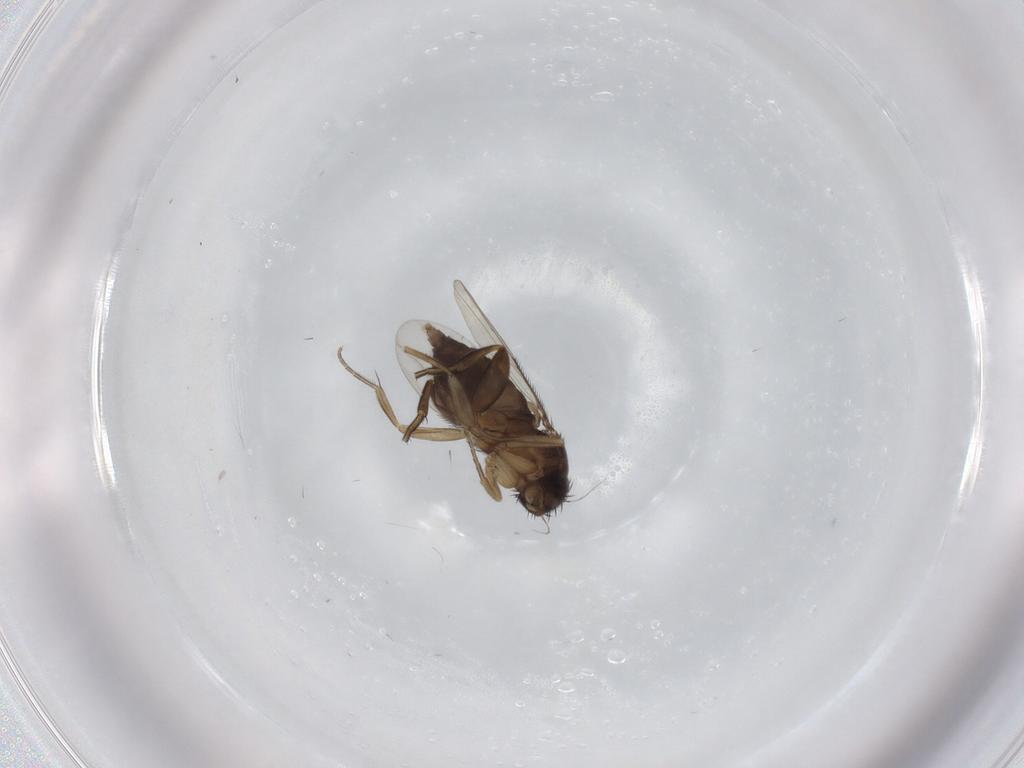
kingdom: Animalia
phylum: Arthropoda
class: Insecta
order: Diptera
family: Phoridae
